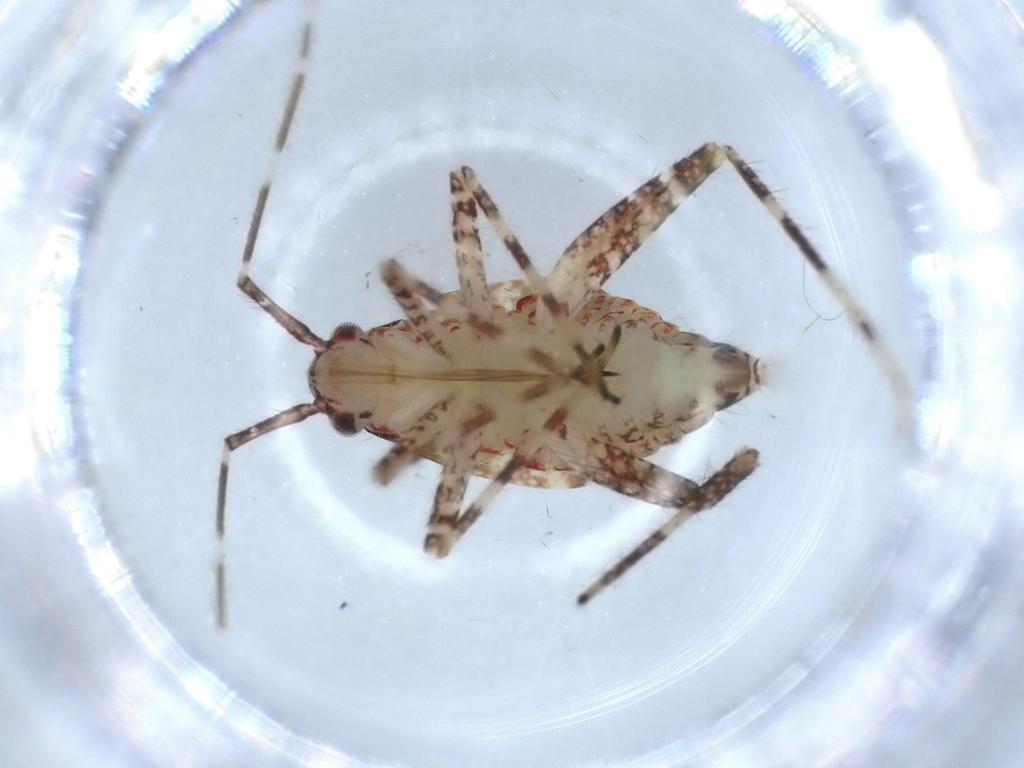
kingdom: Animalia
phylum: Arthropoda
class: Insecta
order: Hemiptera
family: Miridae
